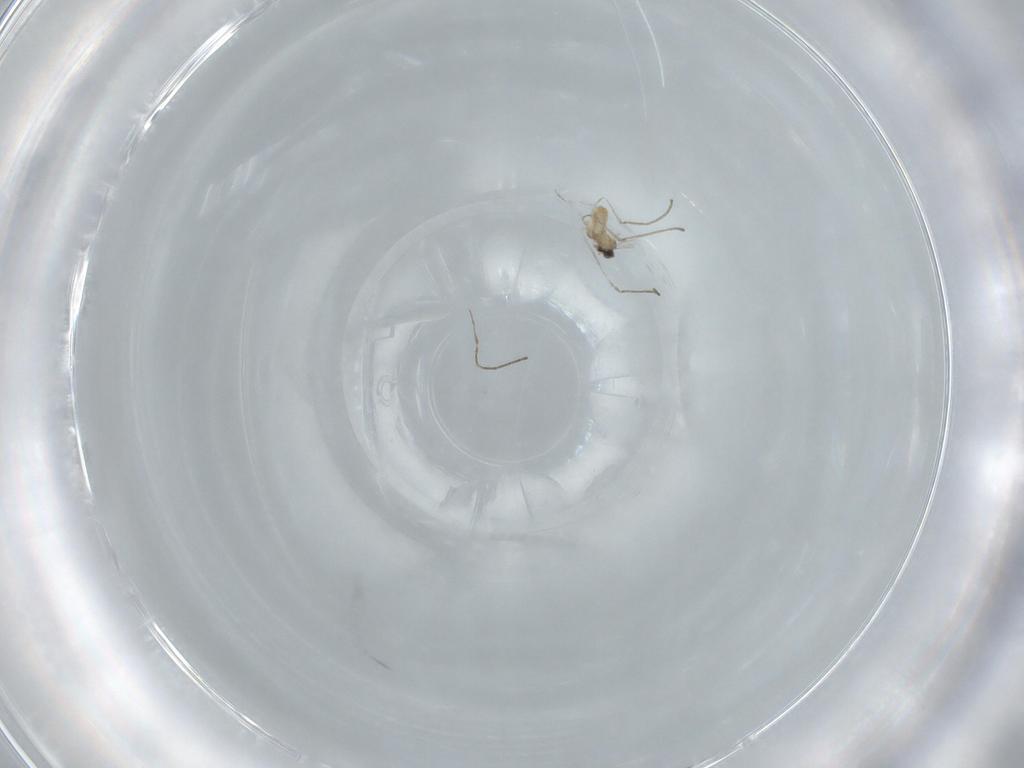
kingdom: Animalia
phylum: Arthropoda
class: Insecta
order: Diptera
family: Cecidomyiidae
